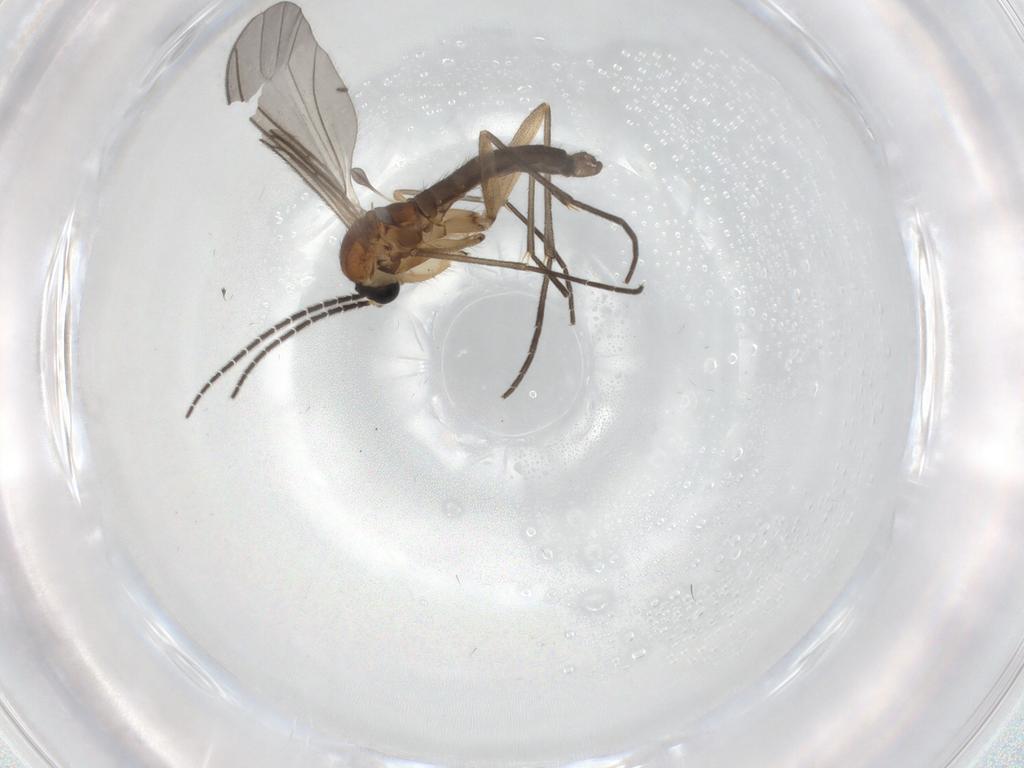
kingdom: Animalia
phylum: Arthropoda
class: Insecta
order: Diptera
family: Sciaridae
